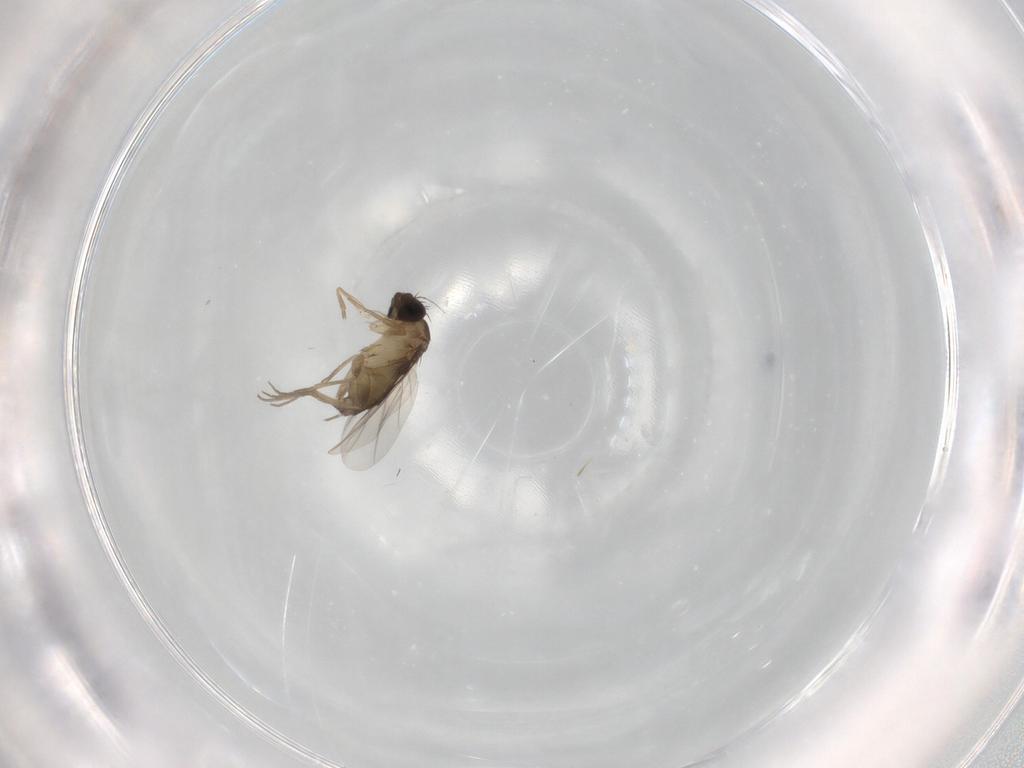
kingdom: Animalia
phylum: Arthropoda
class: Insecta
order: Diptera
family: Phoridae
